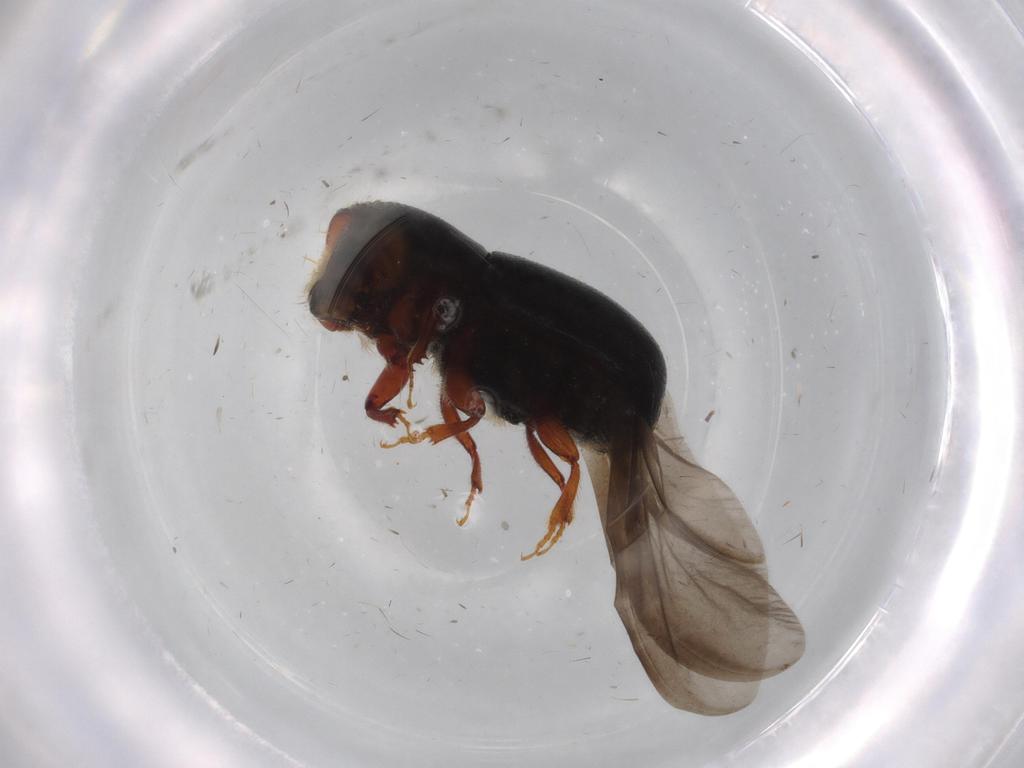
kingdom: Animalia
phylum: Arthropoda
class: Insecta
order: Coleoptera
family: Curculionidae
